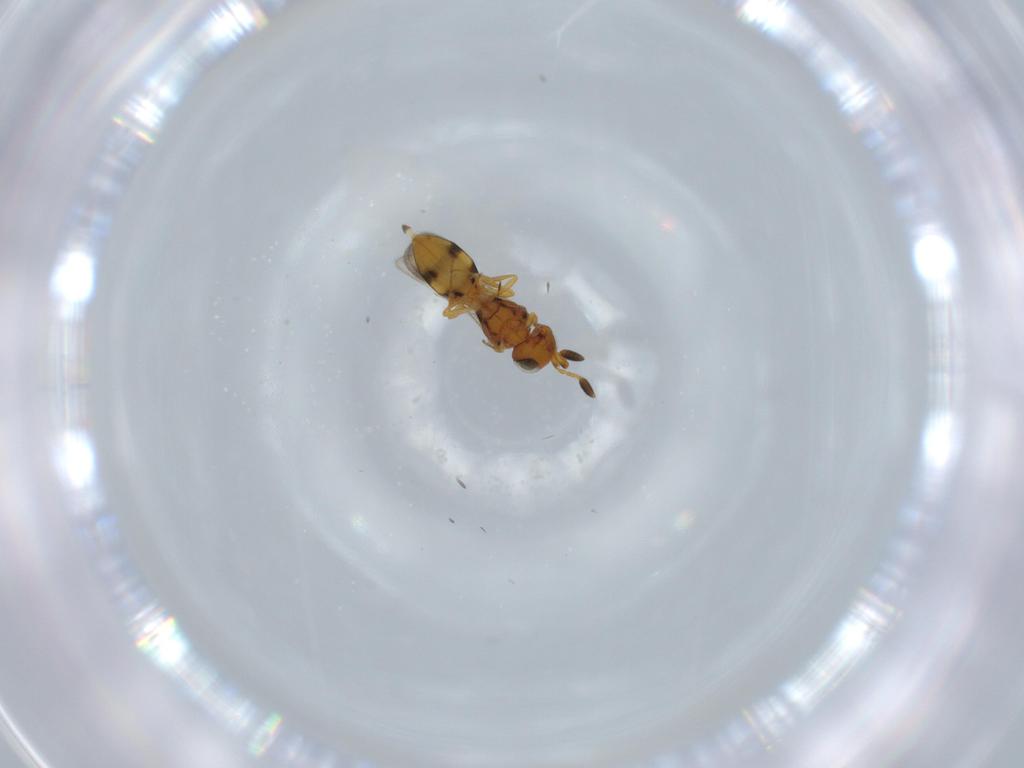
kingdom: Animalia
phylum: Arthropoda
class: Insecta
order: Hymenoptera
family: Scelionidae
